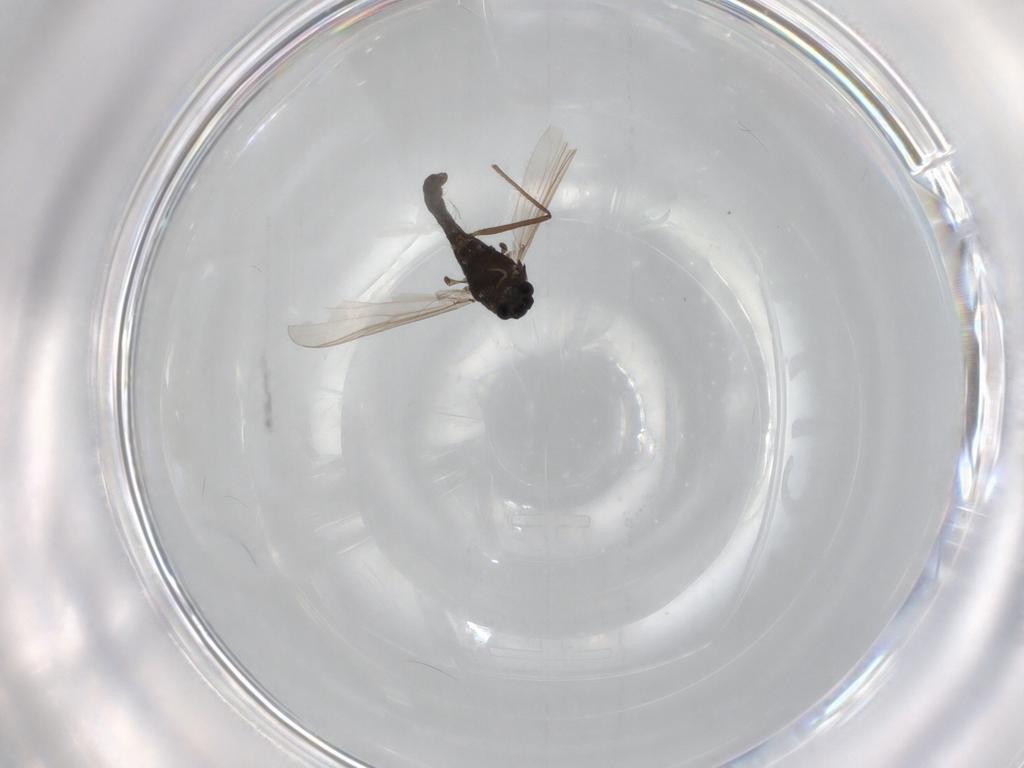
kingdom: Animalia
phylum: Arthropoda
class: Insecta
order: Diptera
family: Chironomidae
